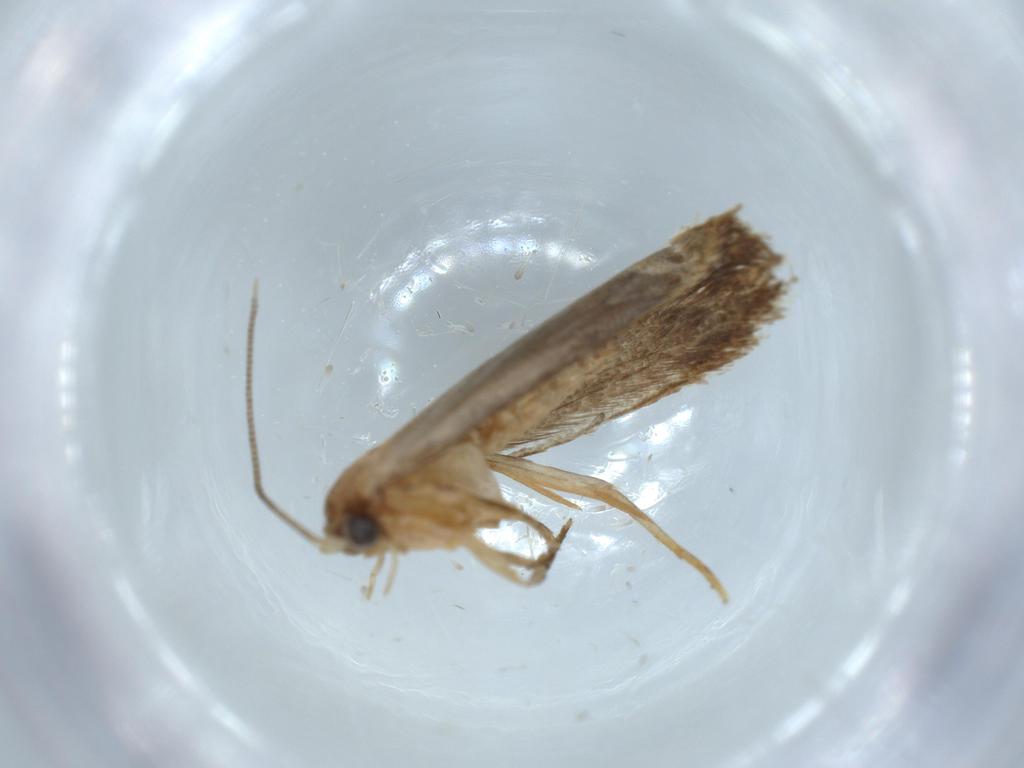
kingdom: Animalia
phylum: Arthropoda
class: Insecta
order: Lepidoptera
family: Tineidae
